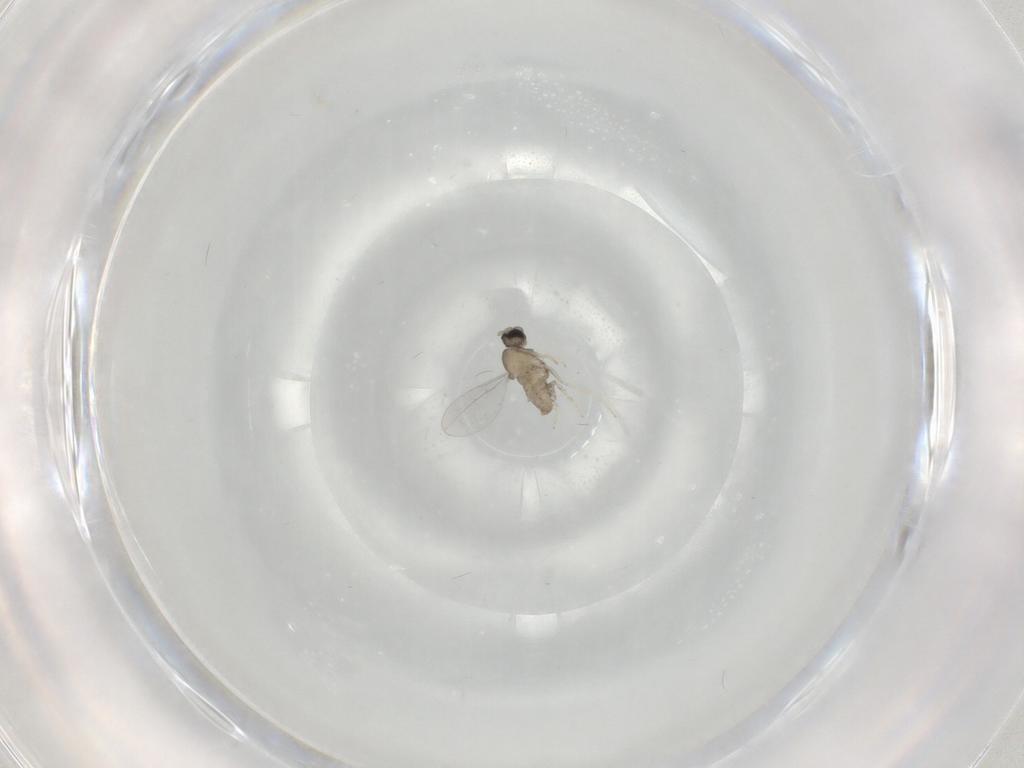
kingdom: Animalia
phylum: Arthropoda
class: Insecta
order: Diptera
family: Cecidomyiidae
